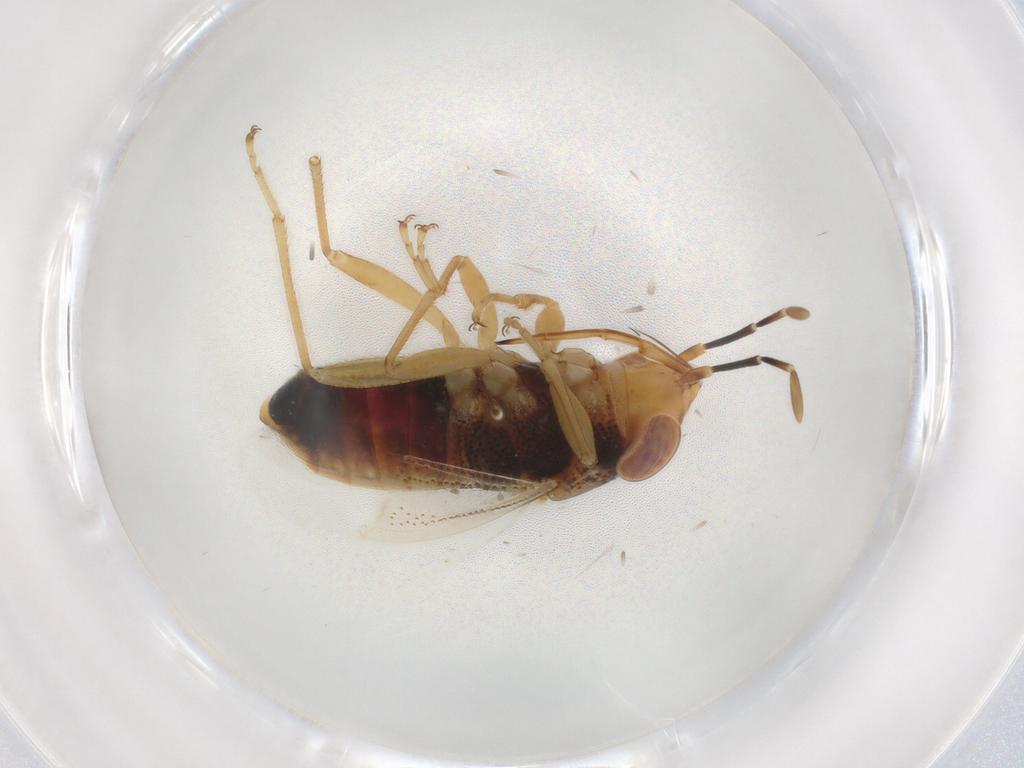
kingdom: Animalia
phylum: Arthropoda
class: Insecta
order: Hemiptera
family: Geocoridae
